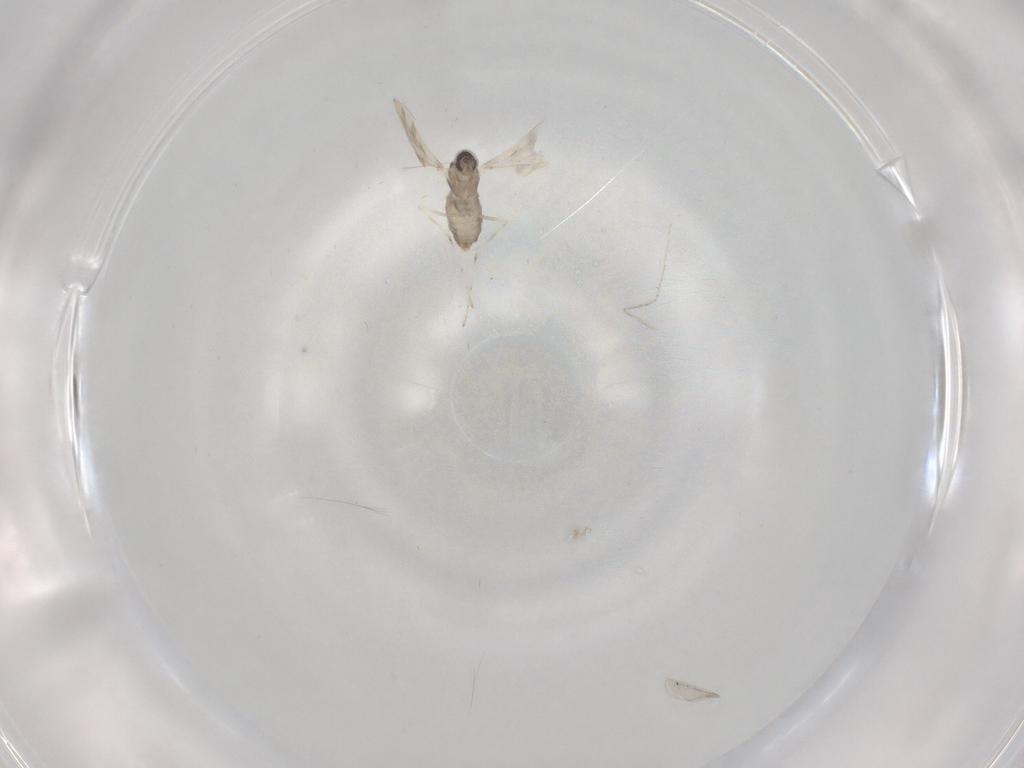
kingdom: Animalia
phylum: Arthropoda
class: Insecta
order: Diptera
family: Cecidomyiidae
